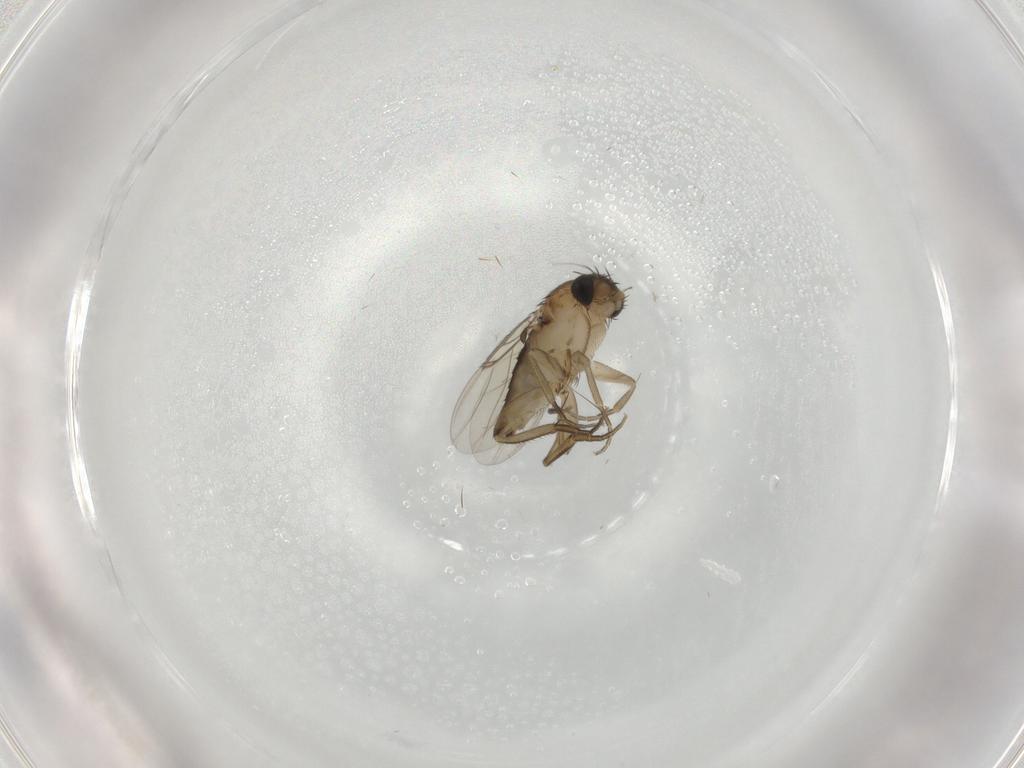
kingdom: Animalia
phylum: Arthropoda
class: Insecta
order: Diptera
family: Phoridae
